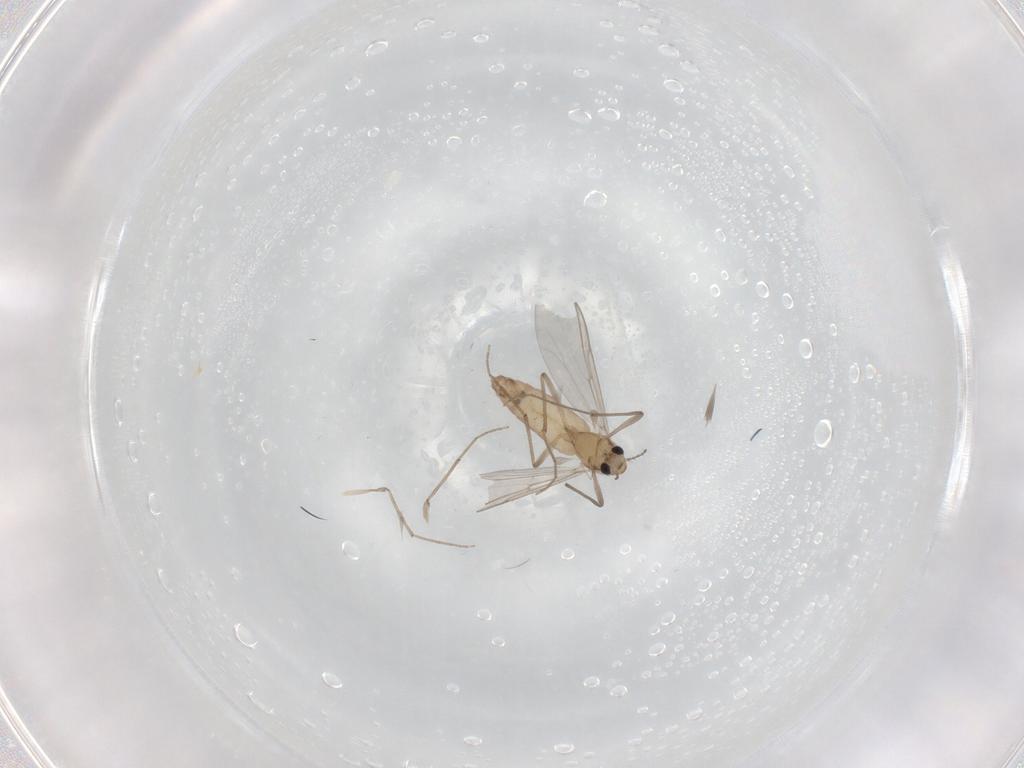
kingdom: Animalia
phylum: Arthropoda
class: Insecta
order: Diptera
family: Chironomidae
